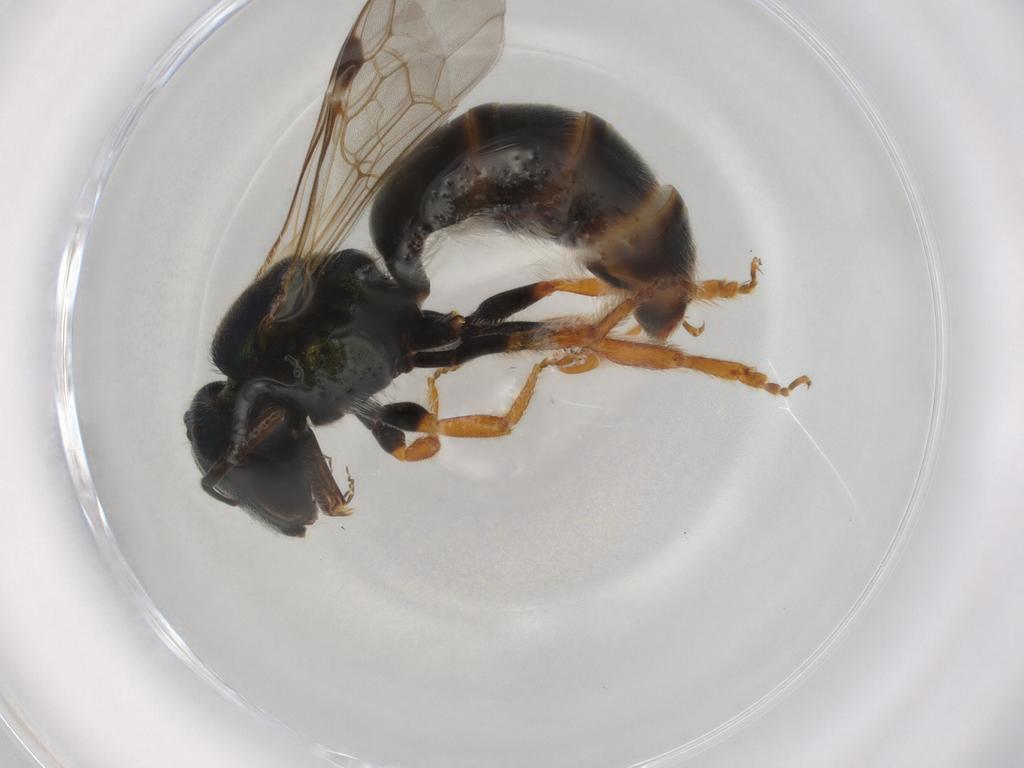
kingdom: Animalia
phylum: Arthropoda
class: Insecta
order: Hymenoptera
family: Halictidae
